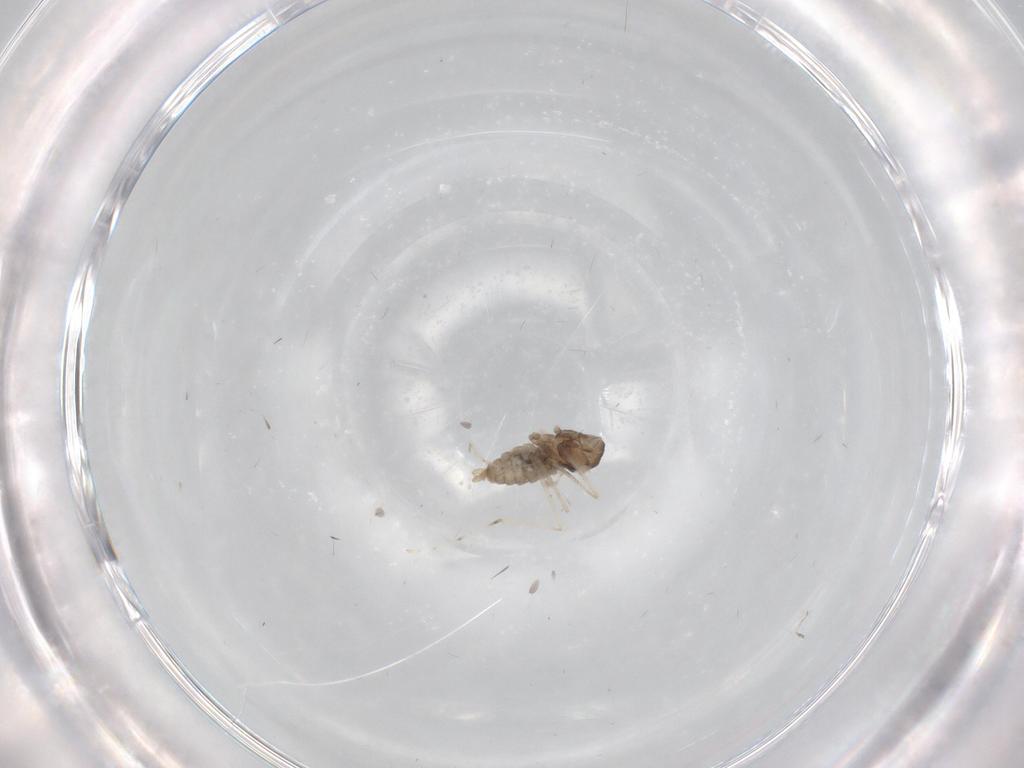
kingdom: Animalia
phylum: Arthropoda
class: Insecta
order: Diptera
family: Cecidomyiidae
